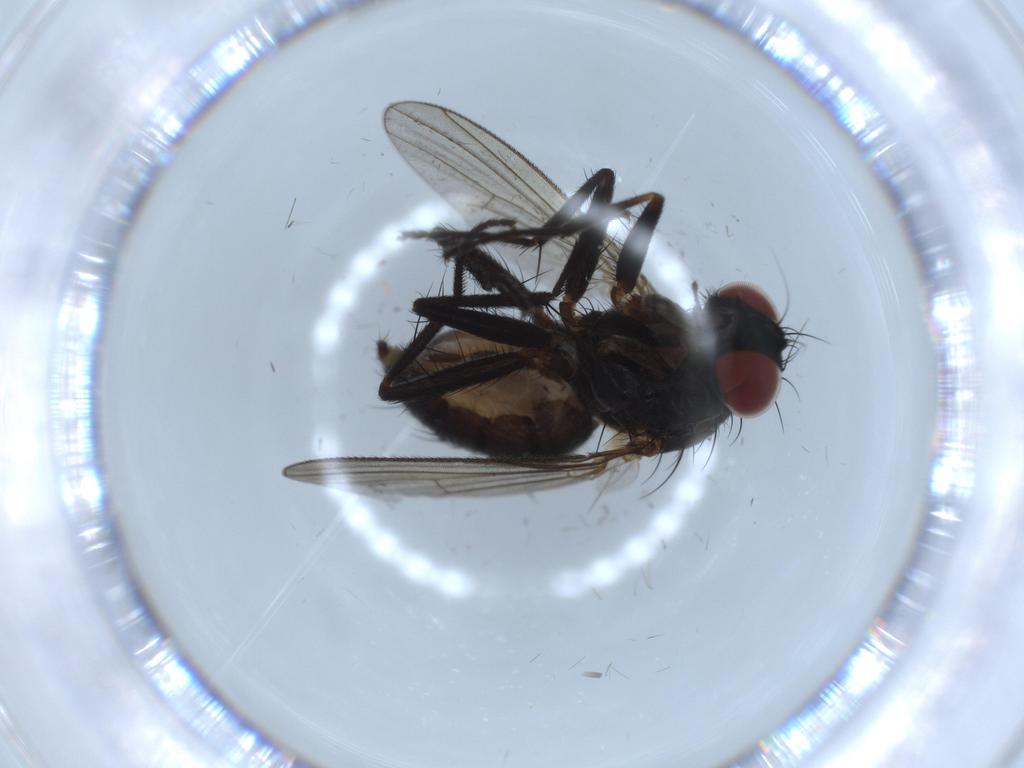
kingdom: Animalia
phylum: Arthropoda
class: Insecta
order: Diptera
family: Muscidae
